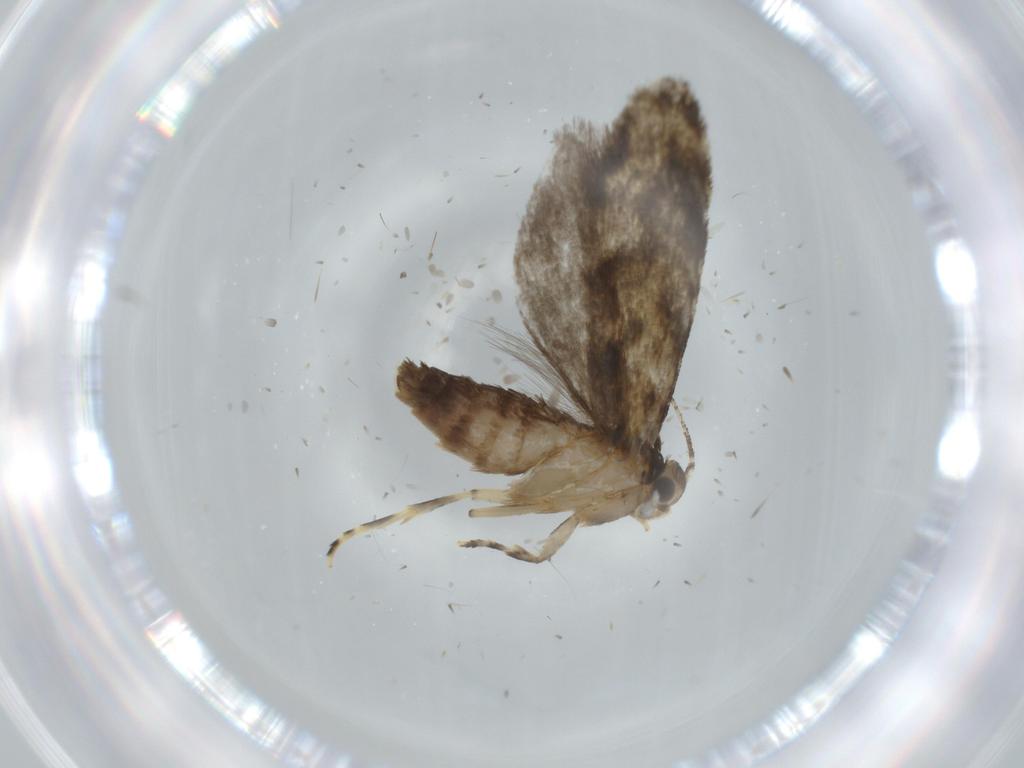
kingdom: Animalia
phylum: Arthropoda
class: Insecta
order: Lepidoptera
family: Tineidae
